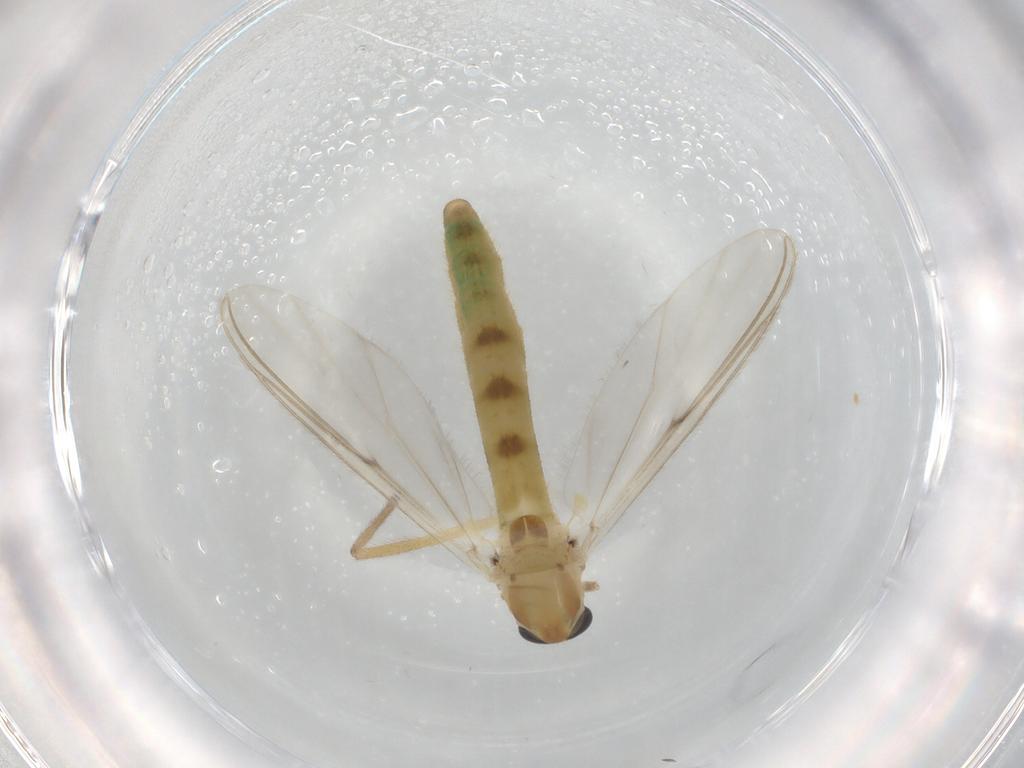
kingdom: Animalia
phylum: Arthropoda
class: Insecta
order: Diptera
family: Chironomidae
